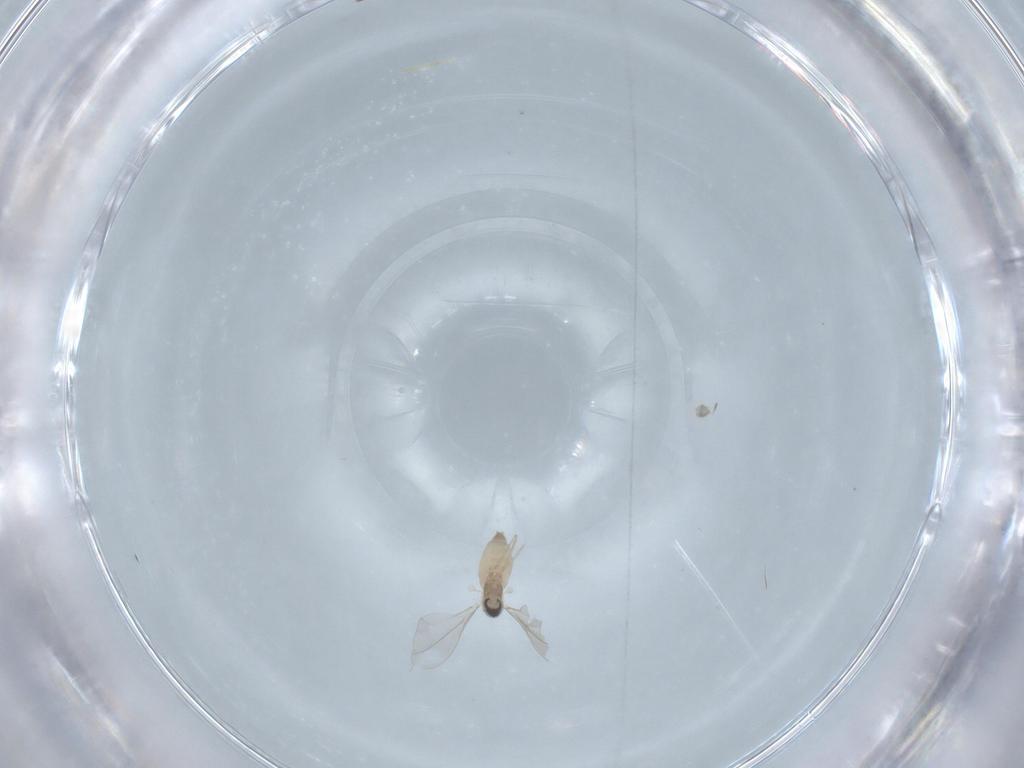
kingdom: Animalia
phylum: Arthropoda
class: Insecta
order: Diptera
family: Cecidomyiidae
